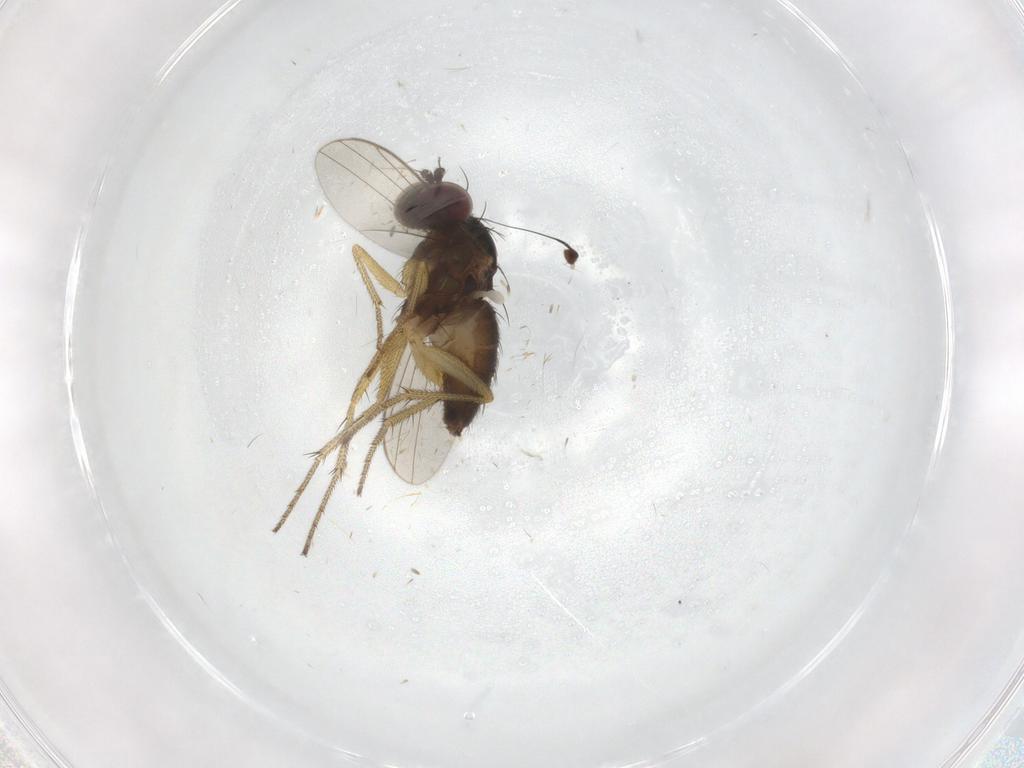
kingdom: Animalia
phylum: Arthropoda
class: Insecta
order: Diptera
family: Dolichopodidae
